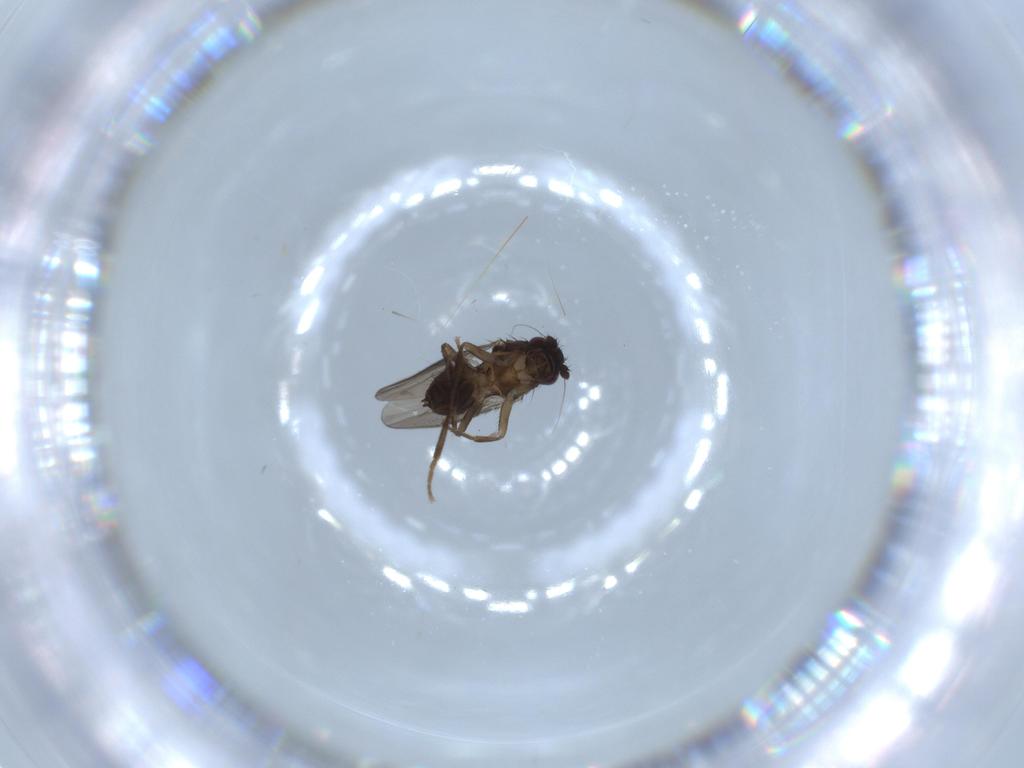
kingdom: Animalia
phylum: Arthropoda
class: Insecta
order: Diptera
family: Sphaeroceridae
